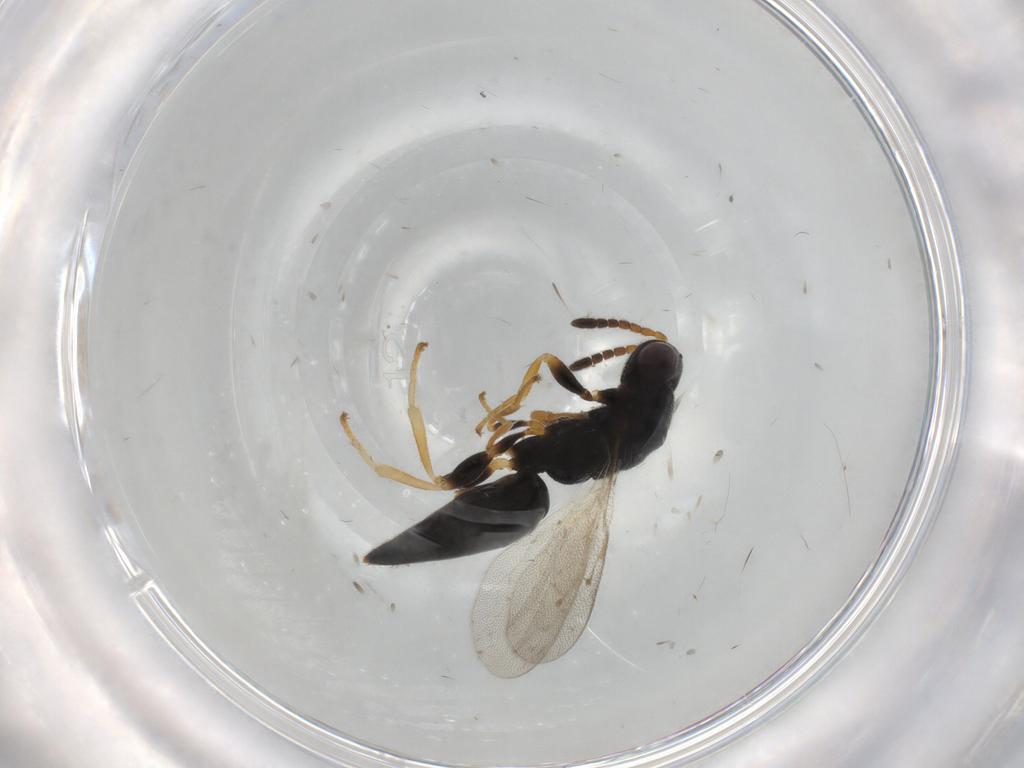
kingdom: Animalia
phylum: Arthropoda
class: Insecta
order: Hymenoptera
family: Eurytomidae
